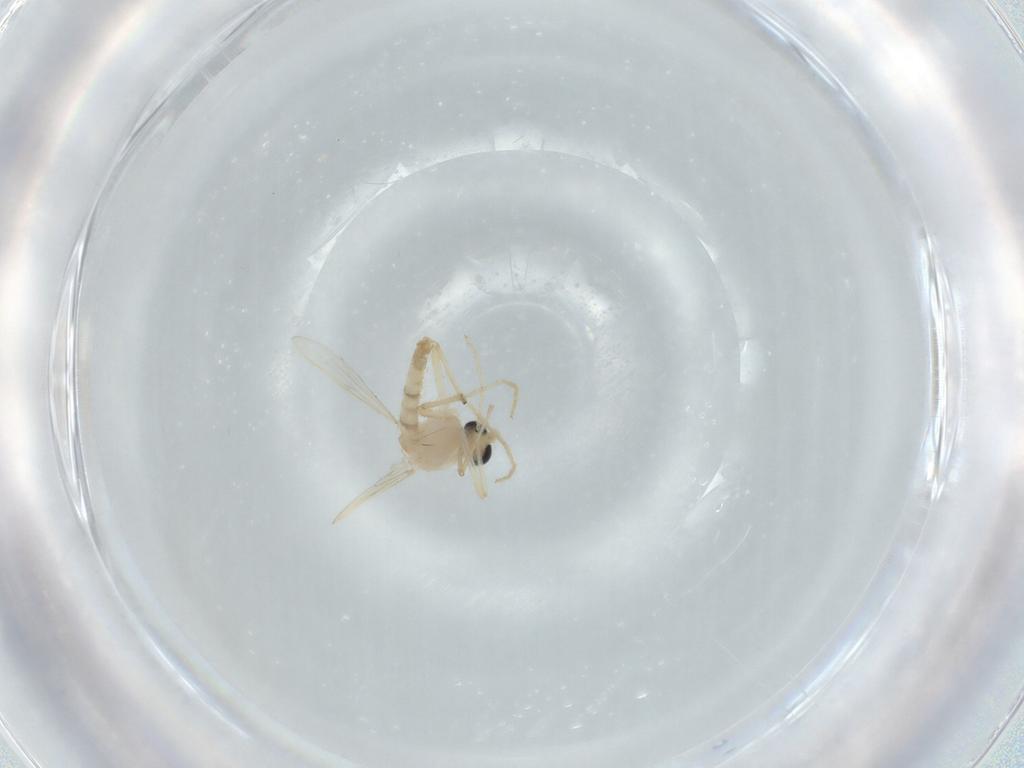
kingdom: Animalia
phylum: Arthropoda
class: Insecta
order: Diptera
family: Chironomidae
